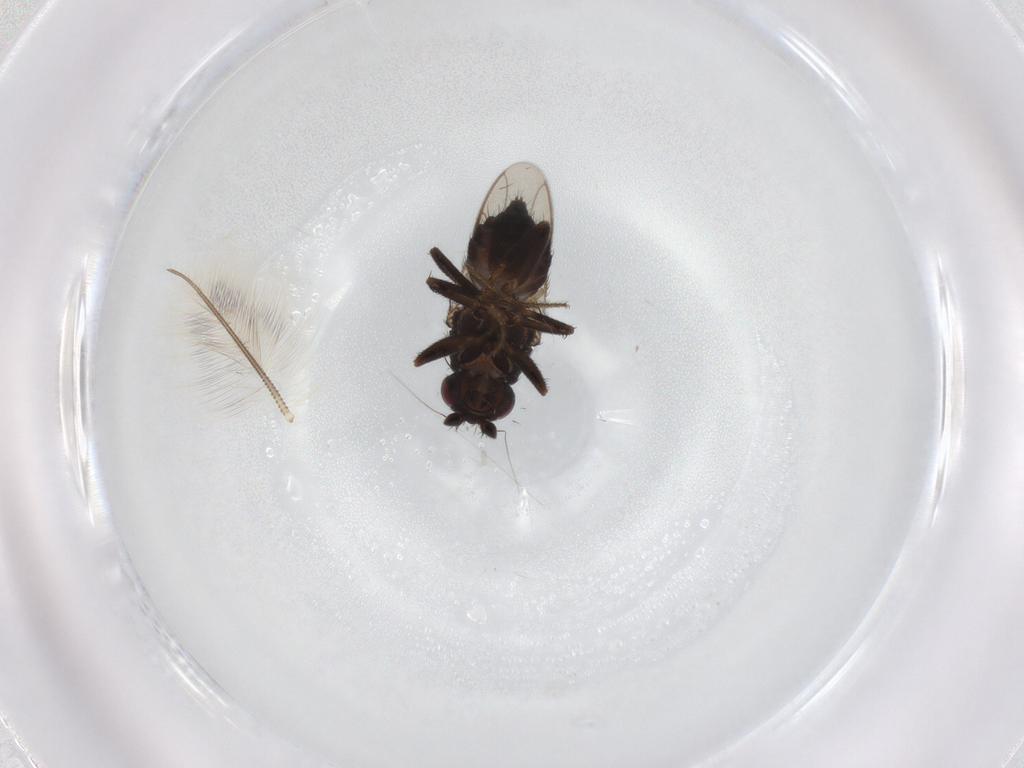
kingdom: Animalia
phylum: Arthropoda
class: Insecta
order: Diptera
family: Sphaeroceridae
